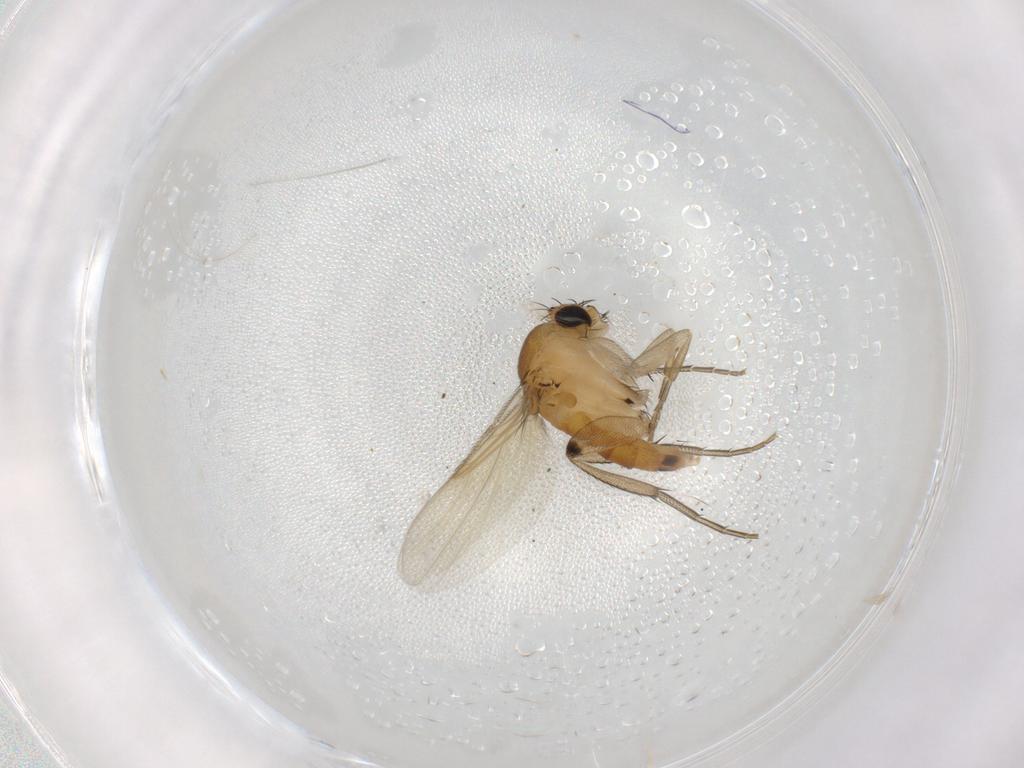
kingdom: Animalia
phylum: Arthropoda
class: Insecta
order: Diptera
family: Phoridae
